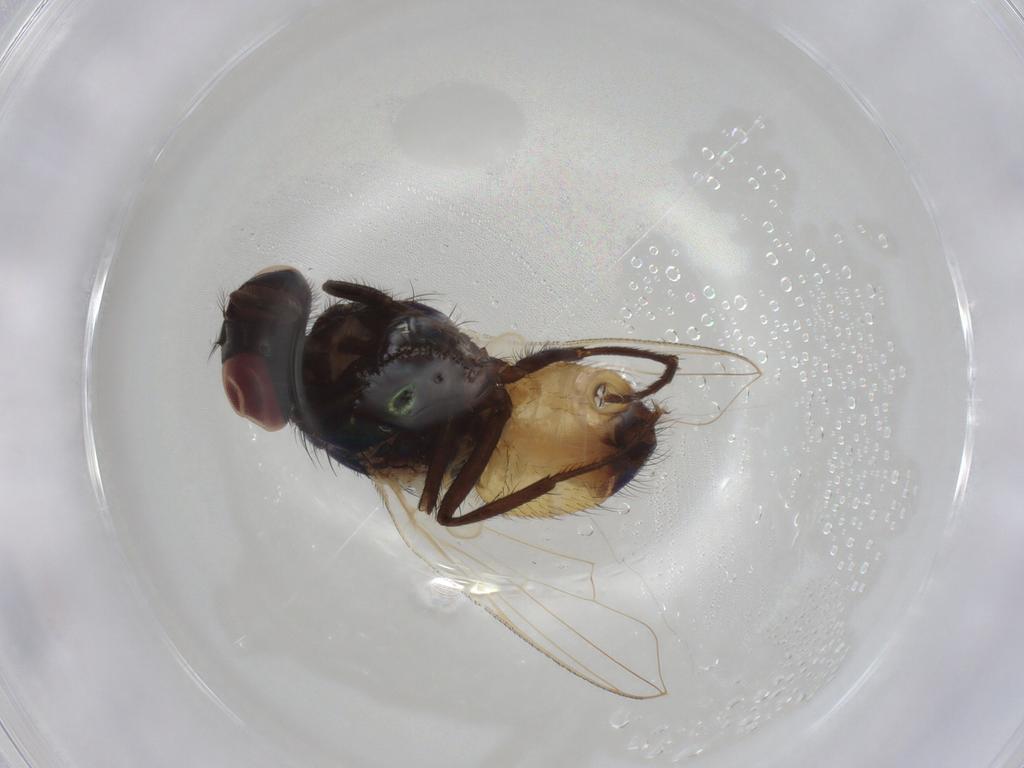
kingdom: Animalia
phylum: Arthropoda
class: Insecta
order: Diptera
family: Muscidae
